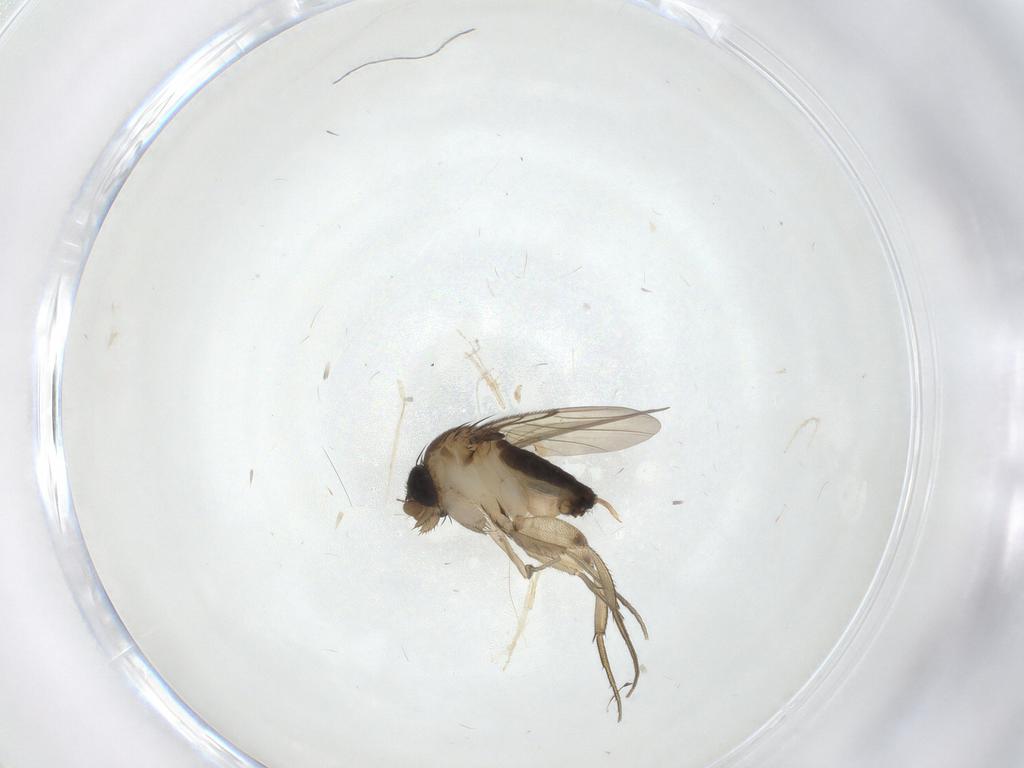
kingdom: Animalia
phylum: Arthropoda
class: Insecta
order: Diptera
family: Phoridae
